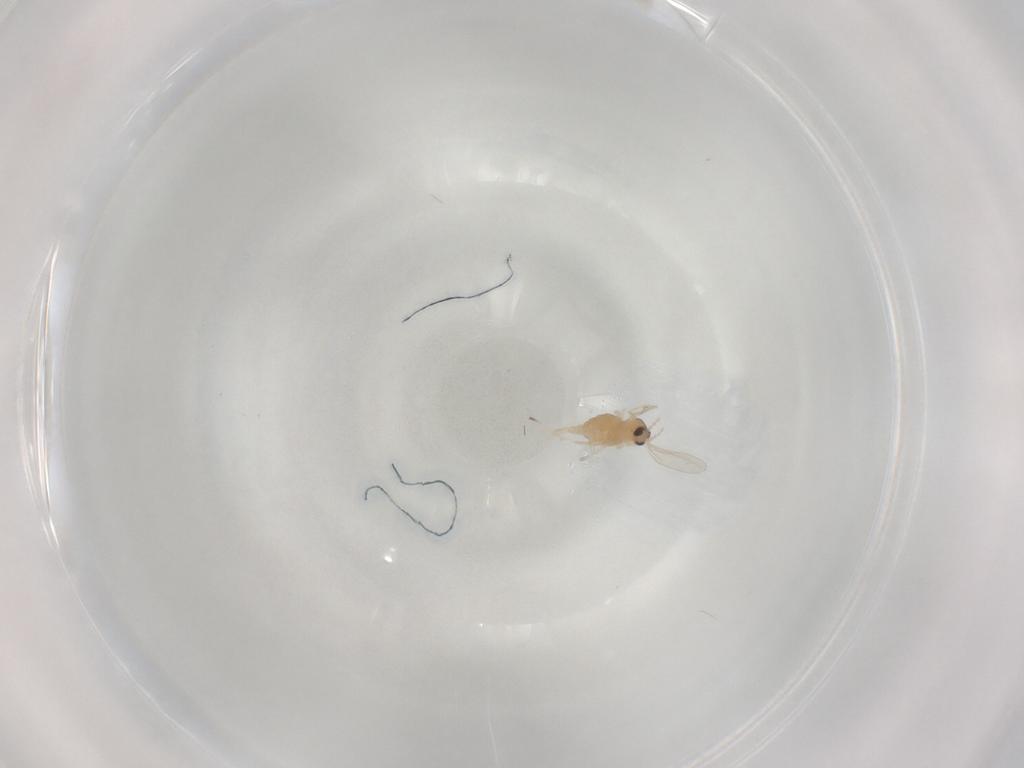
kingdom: Animalia
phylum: Arthropoda
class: Insecta
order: Diptera
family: Cecidomyiidae
